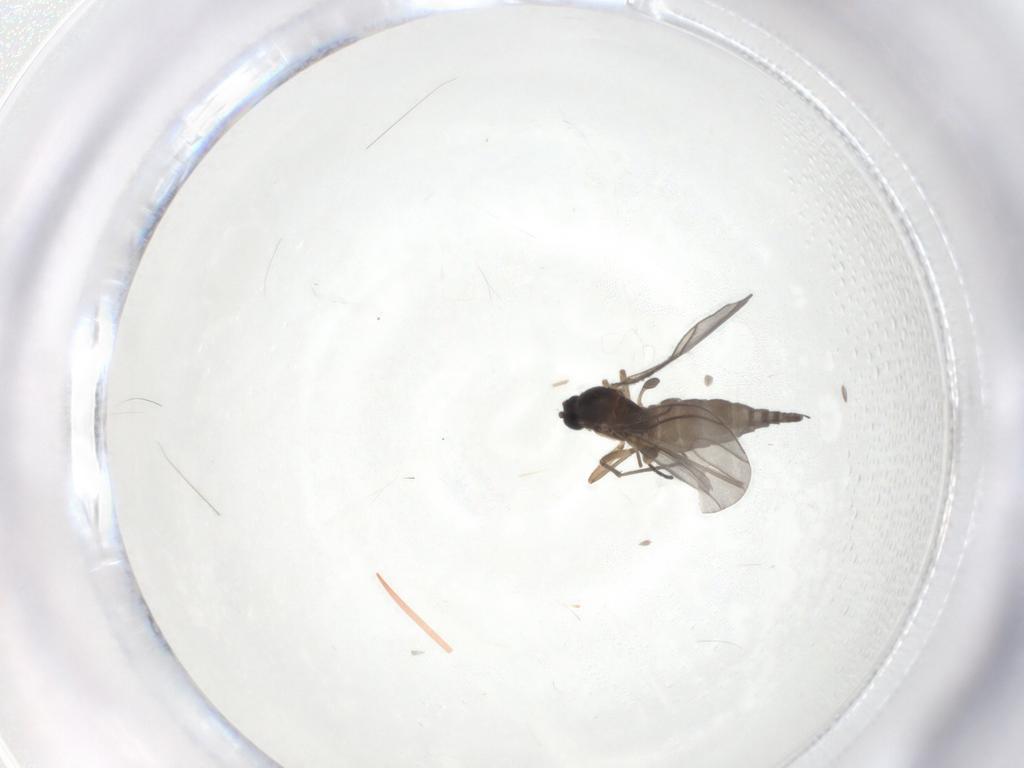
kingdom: Animalia
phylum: Arthropoda
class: Insecta
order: Diptera
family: Sciaridae
